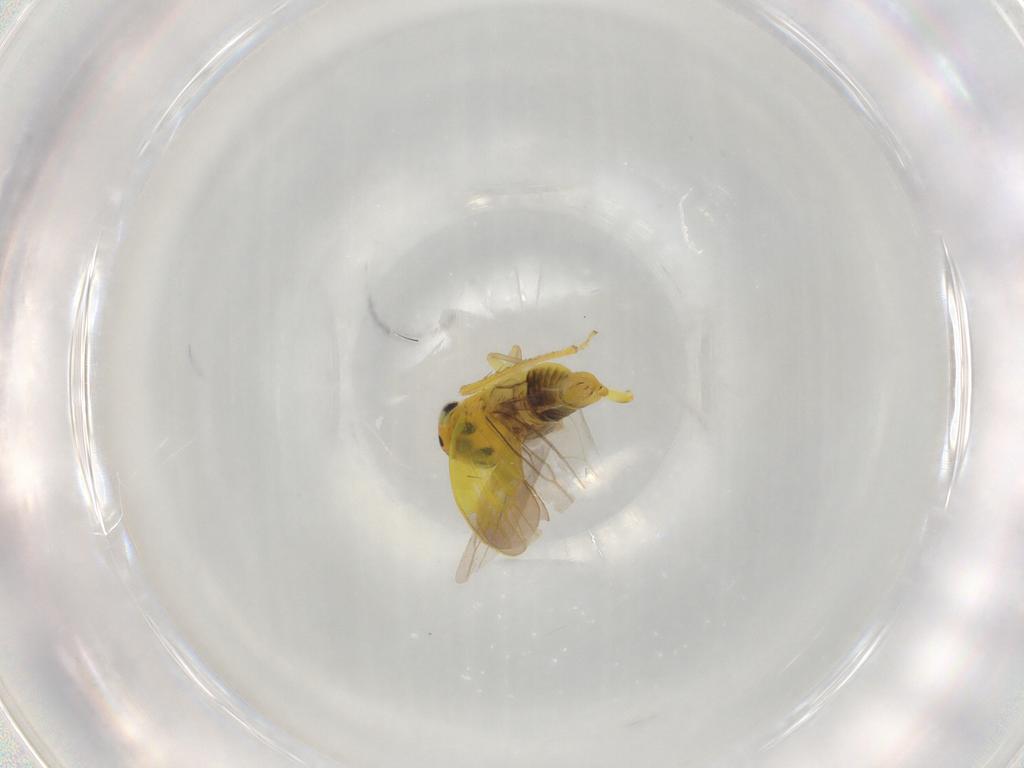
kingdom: Animalia
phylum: Arthropoda
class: Insecta
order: Hemiptera
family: Cicadellidae
